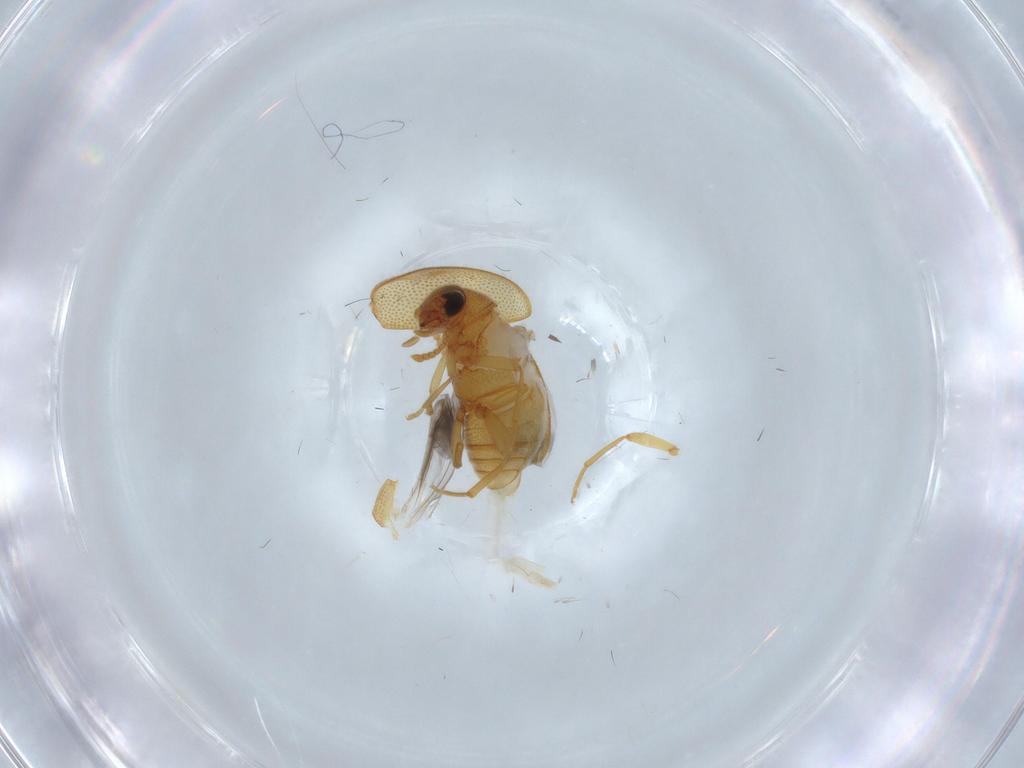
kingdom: Animalia
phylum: Arthropoda
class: Insecta
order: Coleoptera
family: Aderidae
